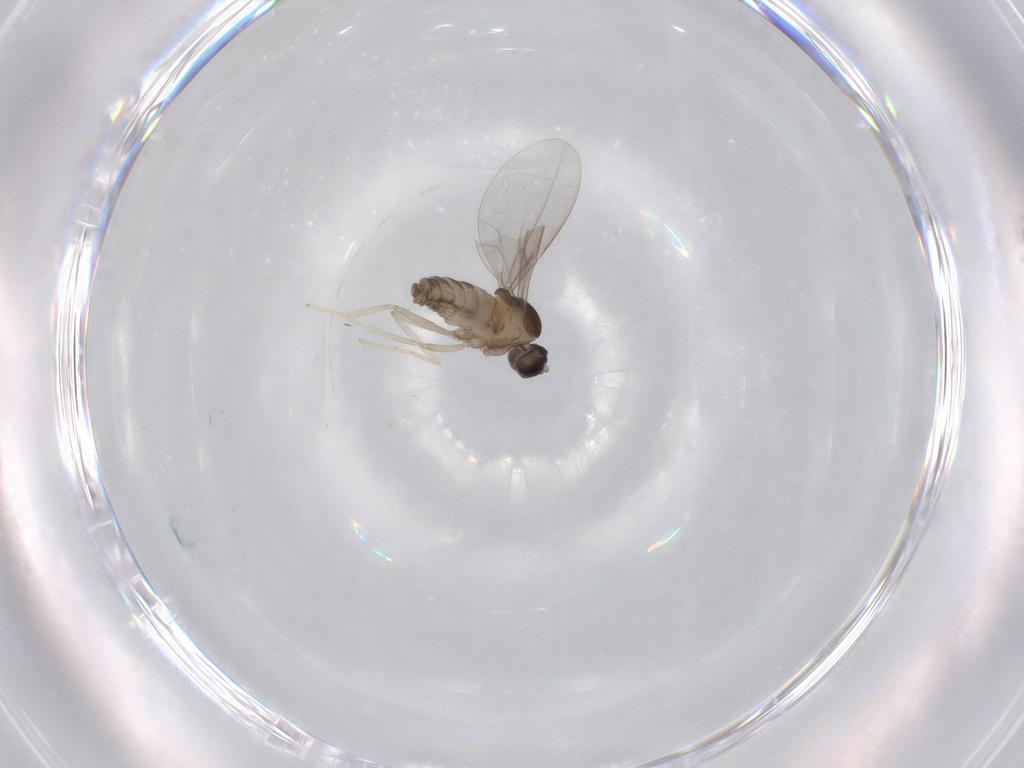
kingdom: Animalia
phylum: Arthropoda
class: Insecta
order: Diptera
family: Cecidomyiidae
